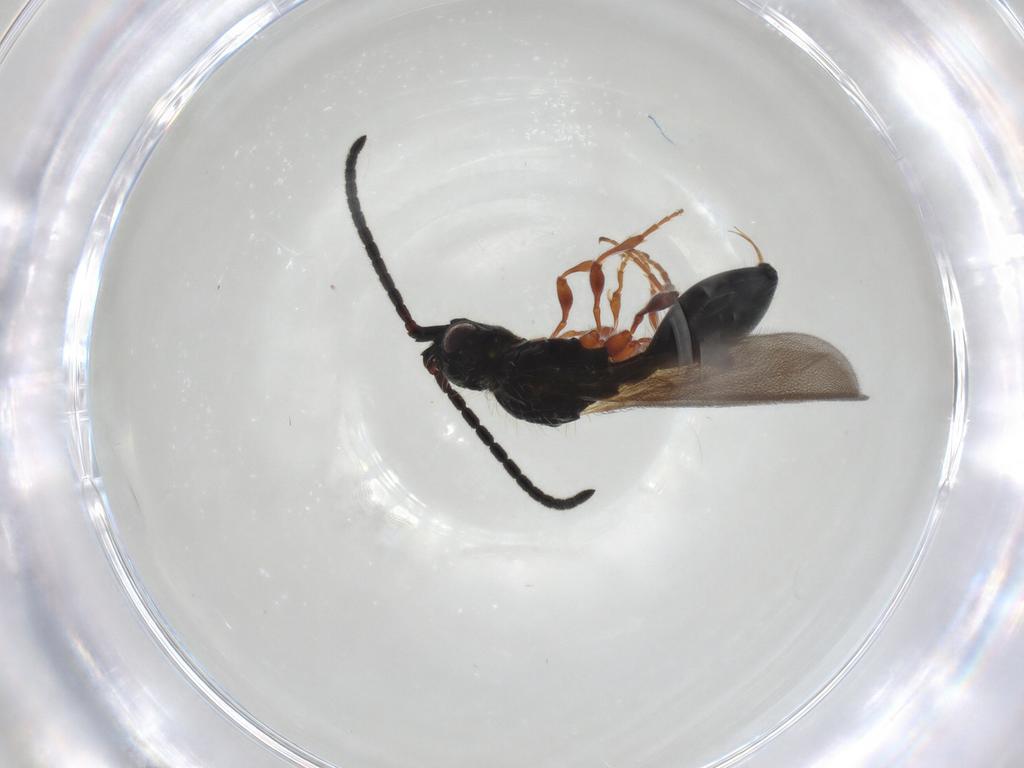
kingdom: Animalia
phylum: Arthropoda
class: Insecta
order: Hymenoptera
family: Diapriidae
